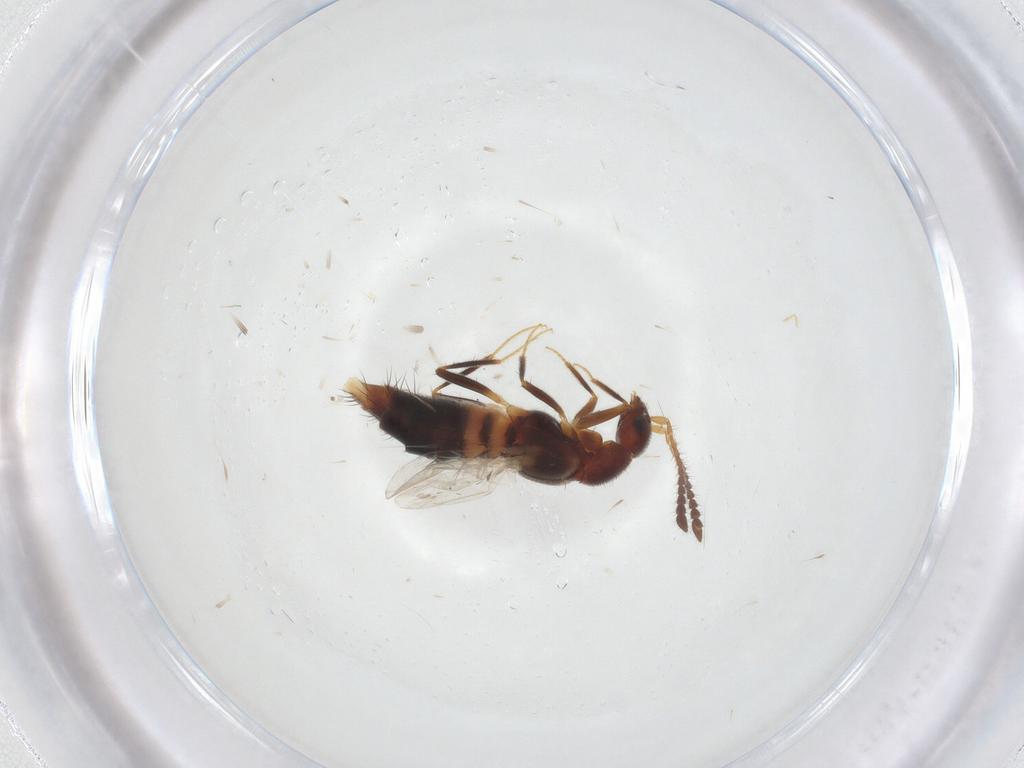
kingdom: Animalia
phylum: Arthropoda
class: Insecta
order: Coleoptera
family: Staphylinidae
